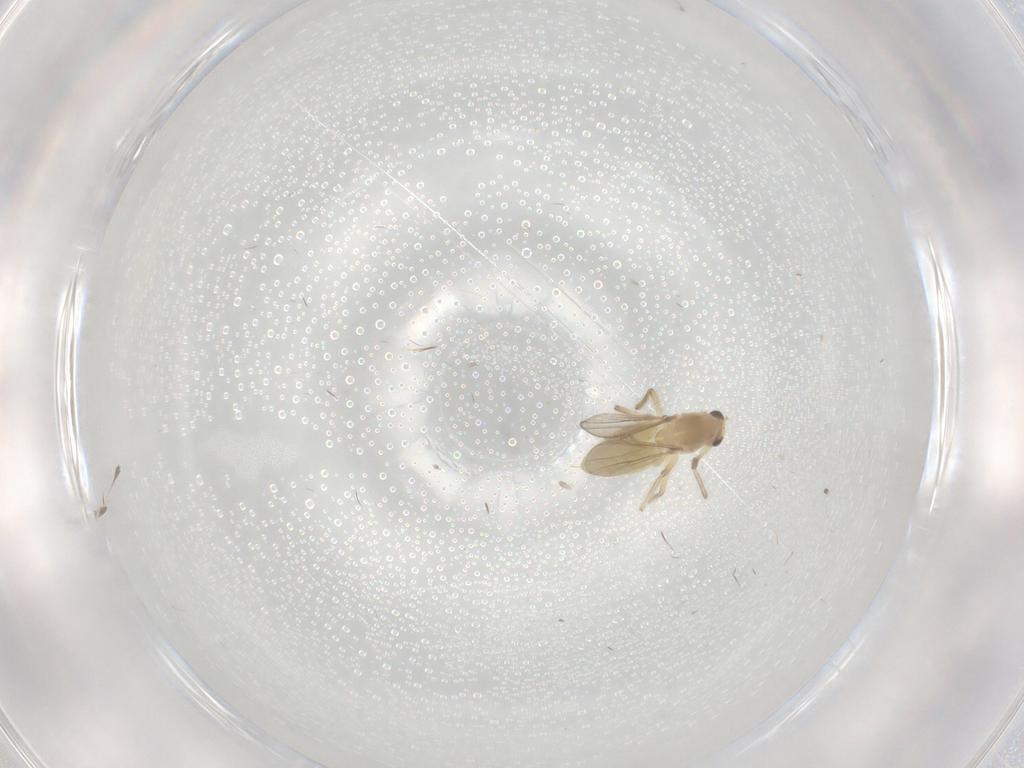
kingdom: Animalia
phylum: Arthropoda
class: Insecta
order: Diptera
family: Chironomidae
